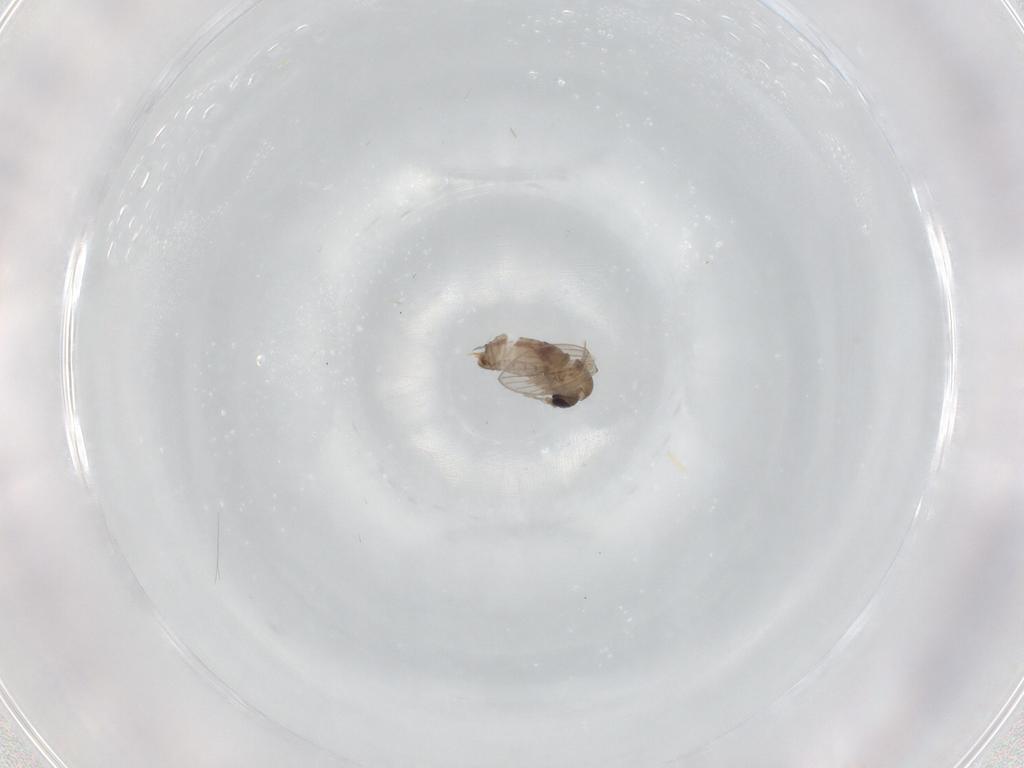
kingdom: Animalia
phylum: Arthropoda
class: Insecta
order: Diptera
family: Psychodidae
